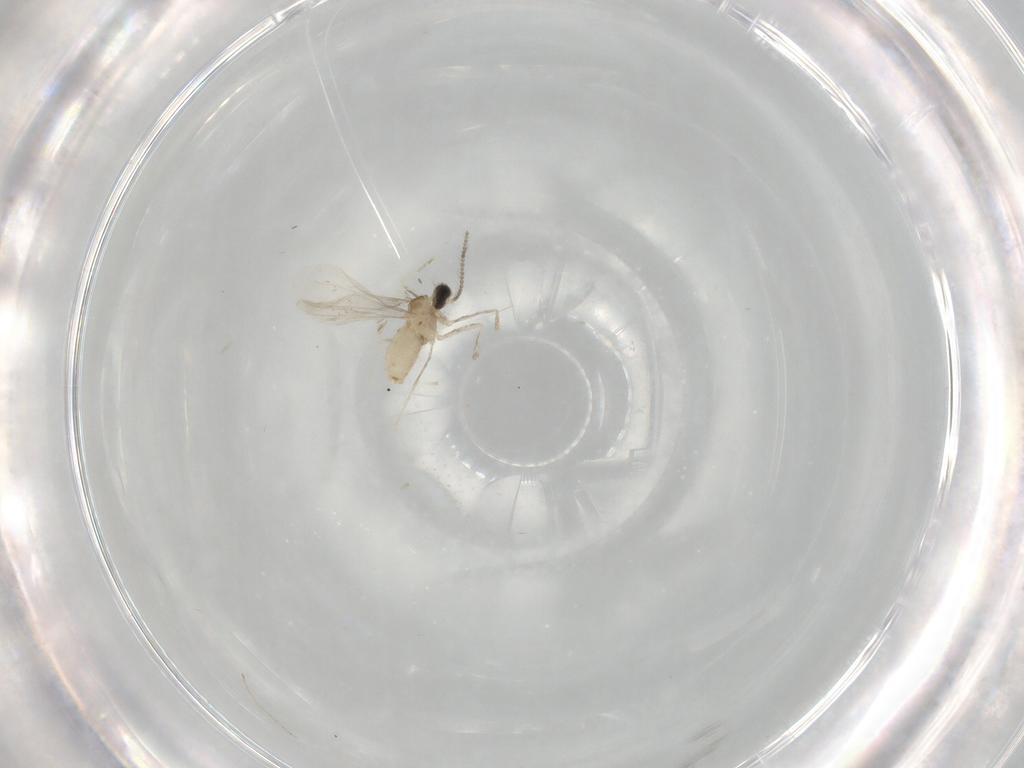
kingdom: Animalia
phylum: Arthropoda
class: Insecta
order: Diptera
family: Cecidomyiidae
